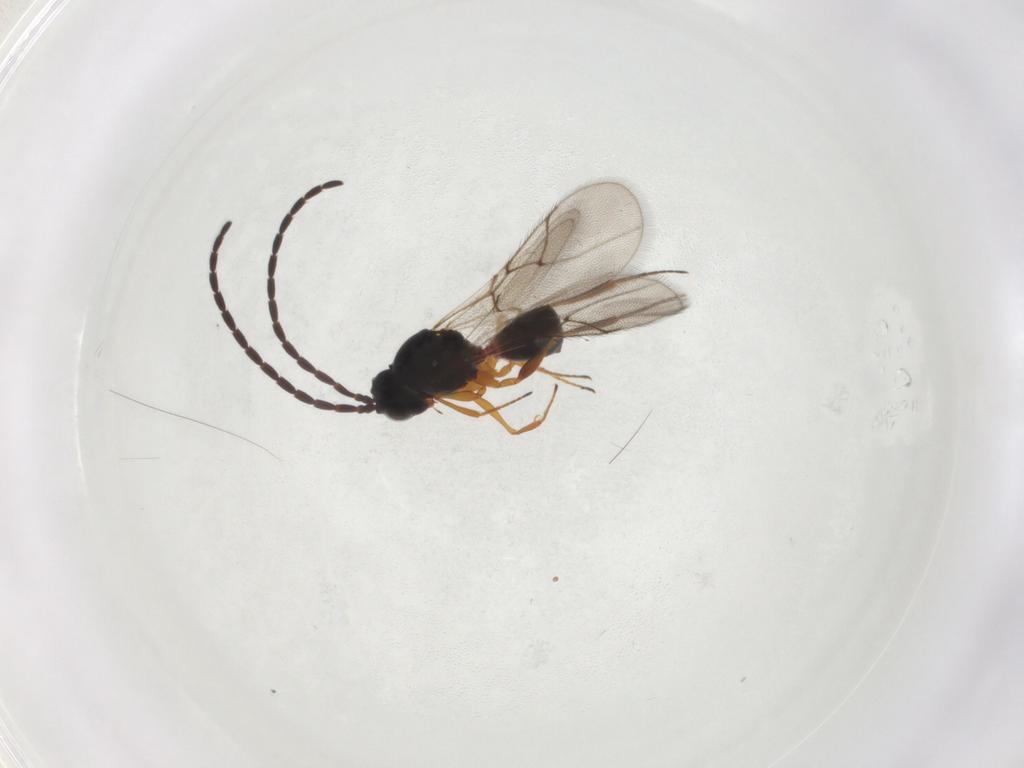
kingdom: Animalia
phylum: Arthropoda
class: Insecta
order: Hymenoptera
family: Figitidae
